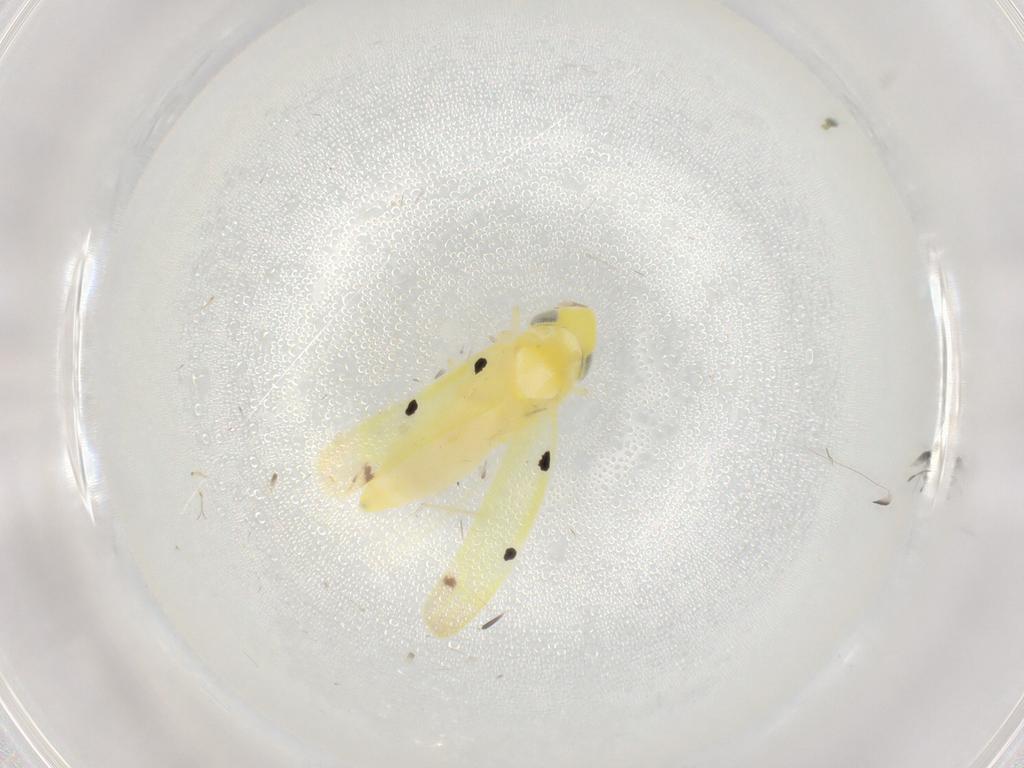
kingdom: Animalia
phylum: Arthropoda
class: Insecta
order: Hemiptera
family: Cicadellidae
